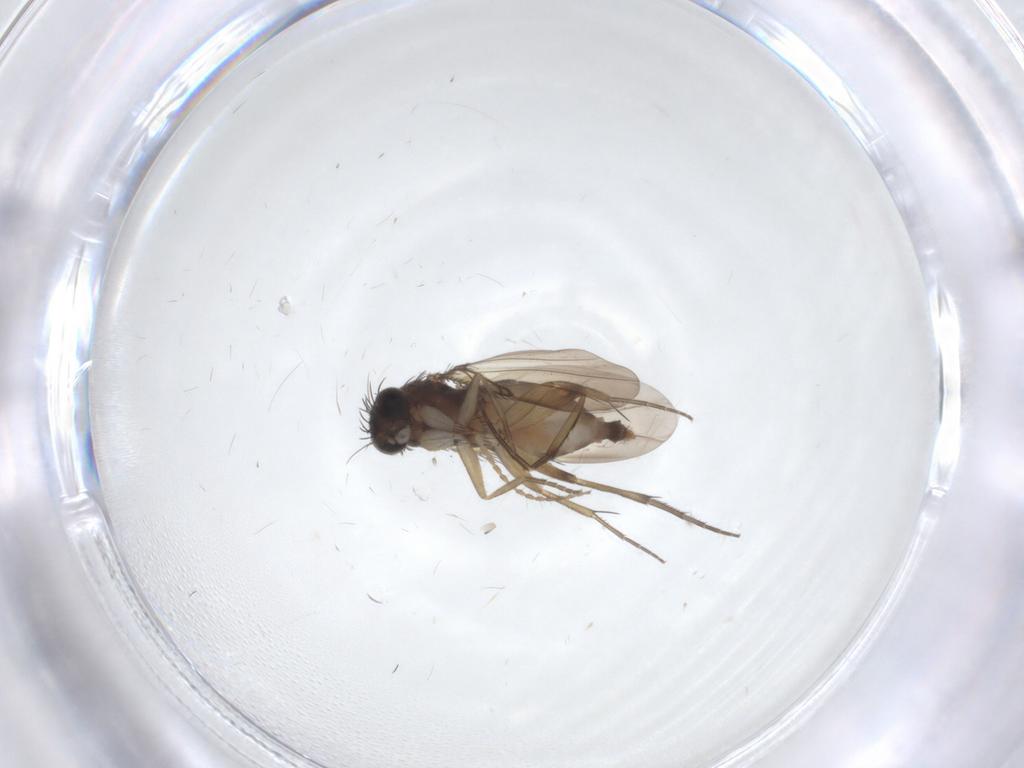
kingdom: Animalia
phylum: Arthropoda
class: Insecta
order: Diptera
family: Phoridae
